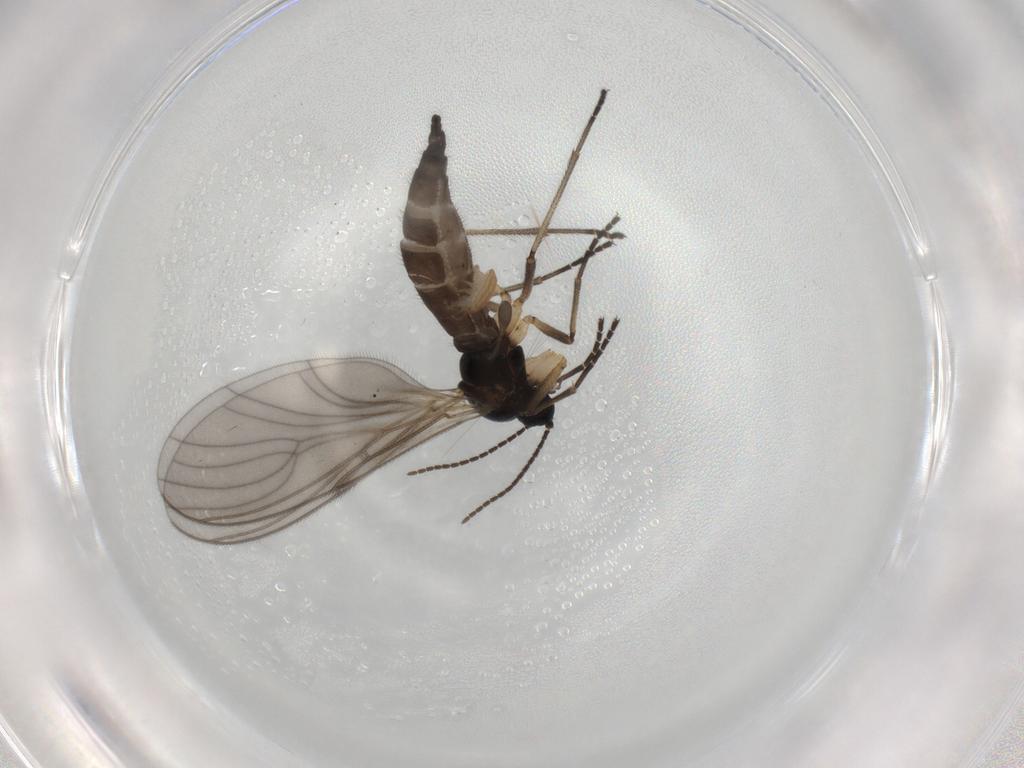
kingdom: Animalia
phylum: Arthropoda
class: Insecta
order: Diptera
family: Sciaridae
